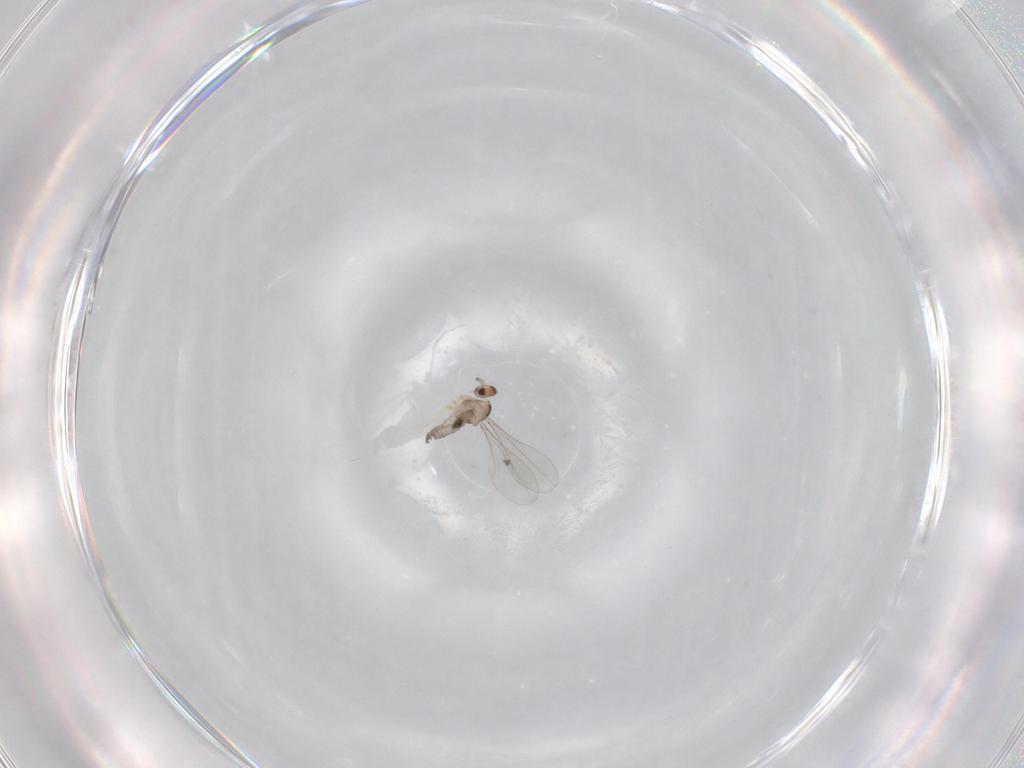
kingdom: Animalia
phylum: Arthropoda
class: Insecta
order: Diptera
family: Cecidomyiidae
